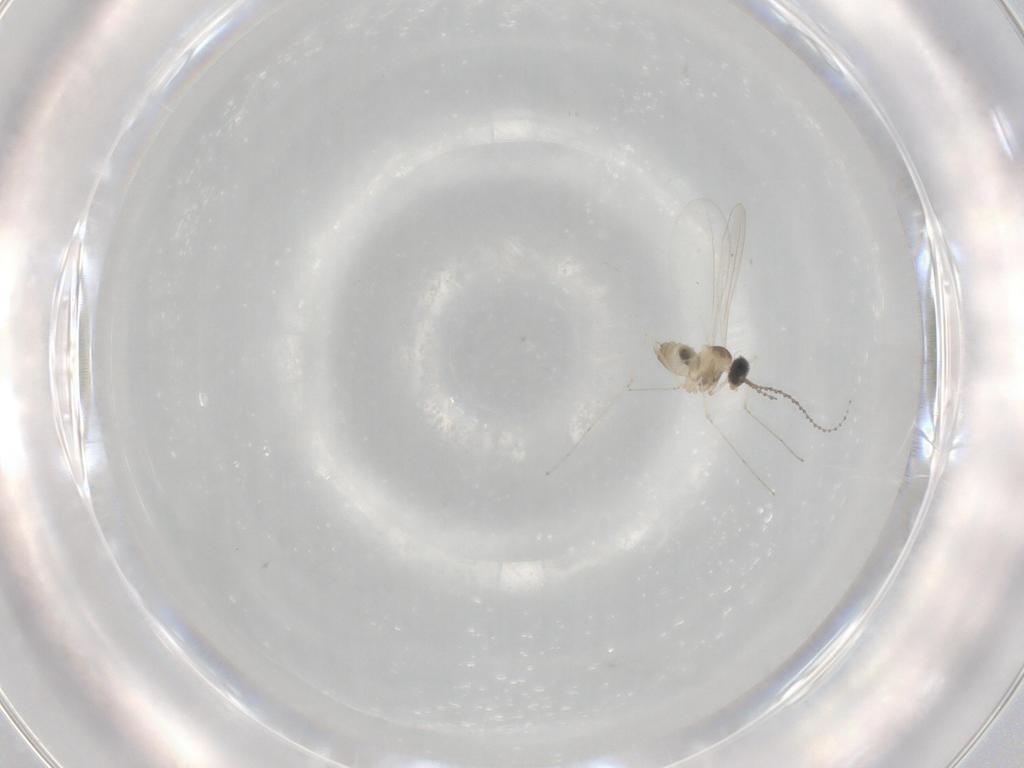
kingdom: Animalia
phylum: Arthropoda
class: Insecta
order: Diptera
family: Cecidomyiidae
